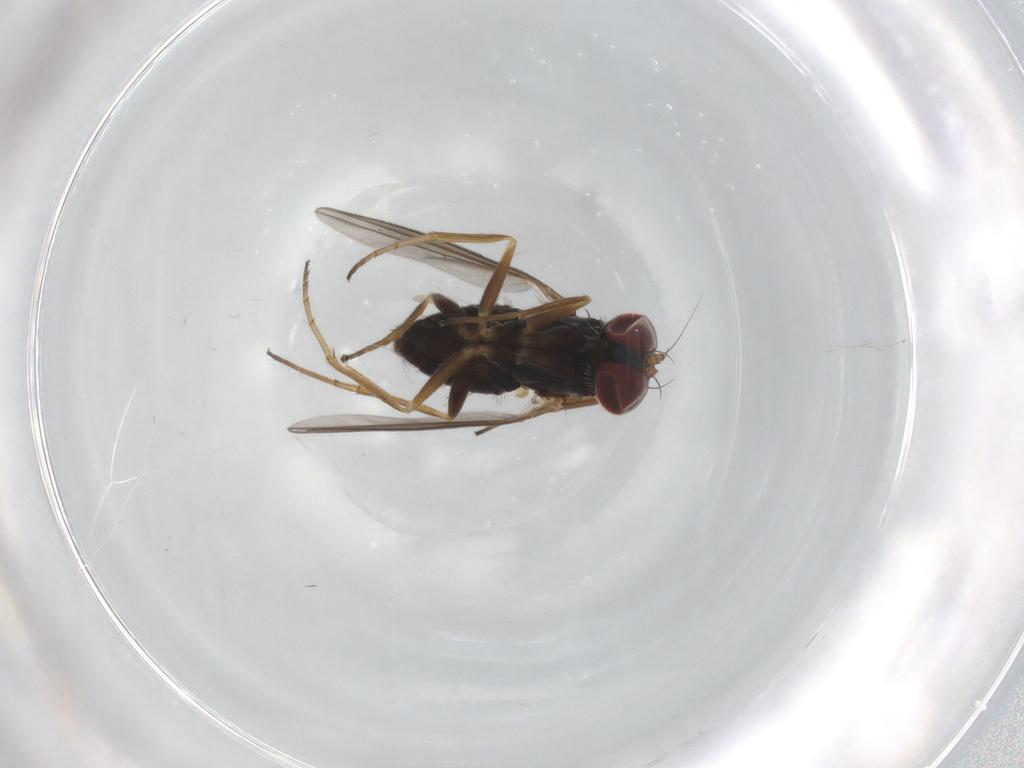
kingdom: Animalia
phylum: Arthropoda
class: Insecta
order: Diptera
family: Dolichopodidae
